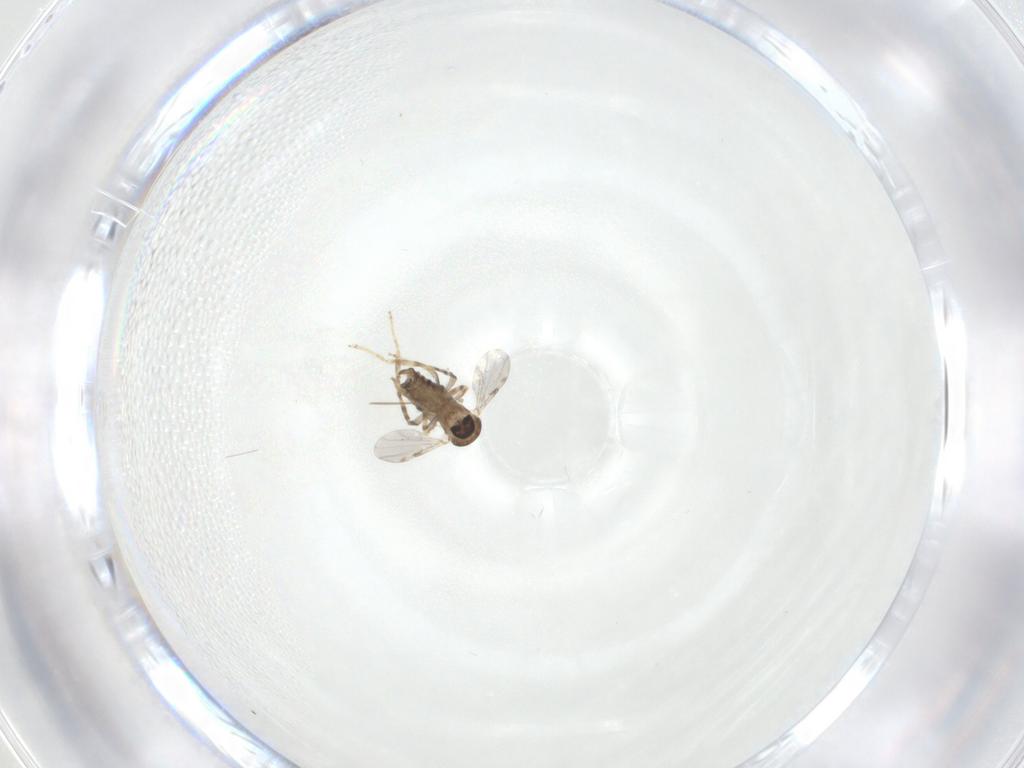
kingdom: Animalia
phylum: Arthropoda
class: Insecta
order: Diptera
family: Ceratopogonidae
